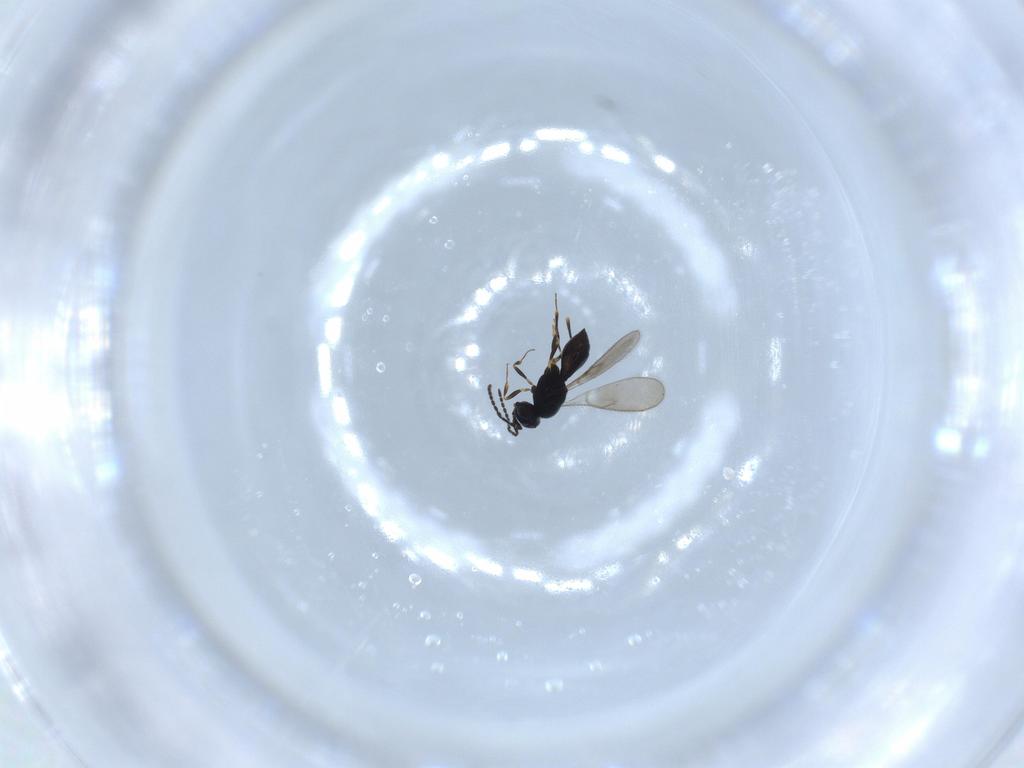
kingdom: Animalia
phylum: Arthropoda
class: Insecta
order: Hymenoptera
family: Scelionidae
